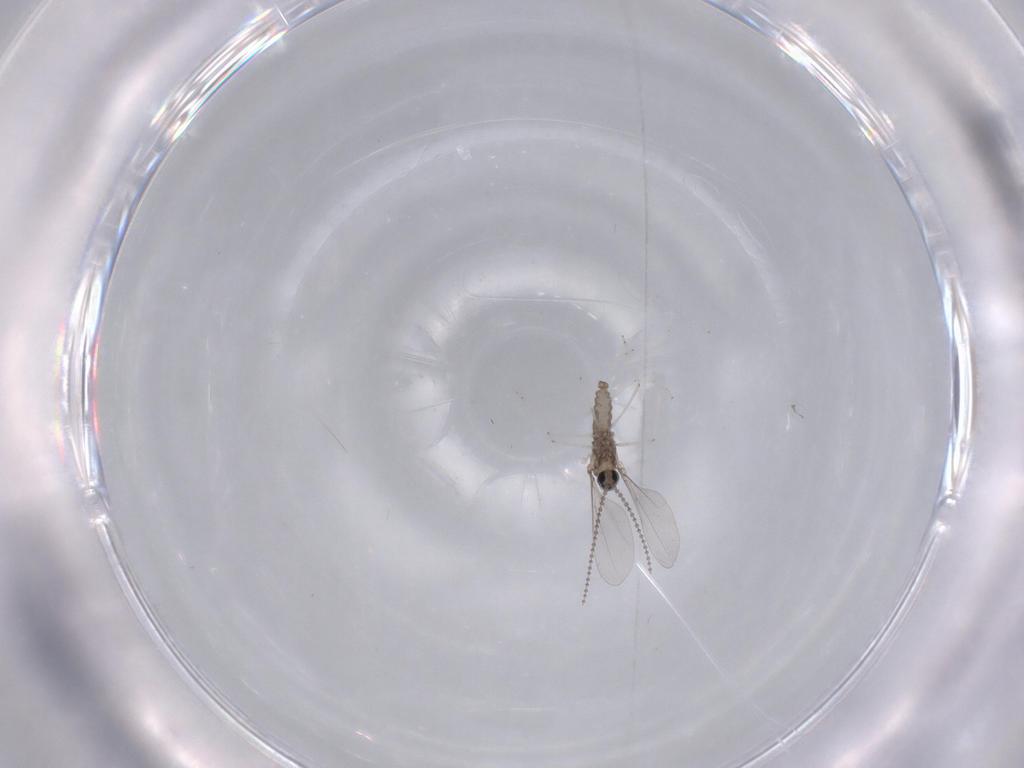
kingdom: Animalia
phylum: Arthropoda
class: Insecta
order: Diptera
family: Cecidomyiidae
